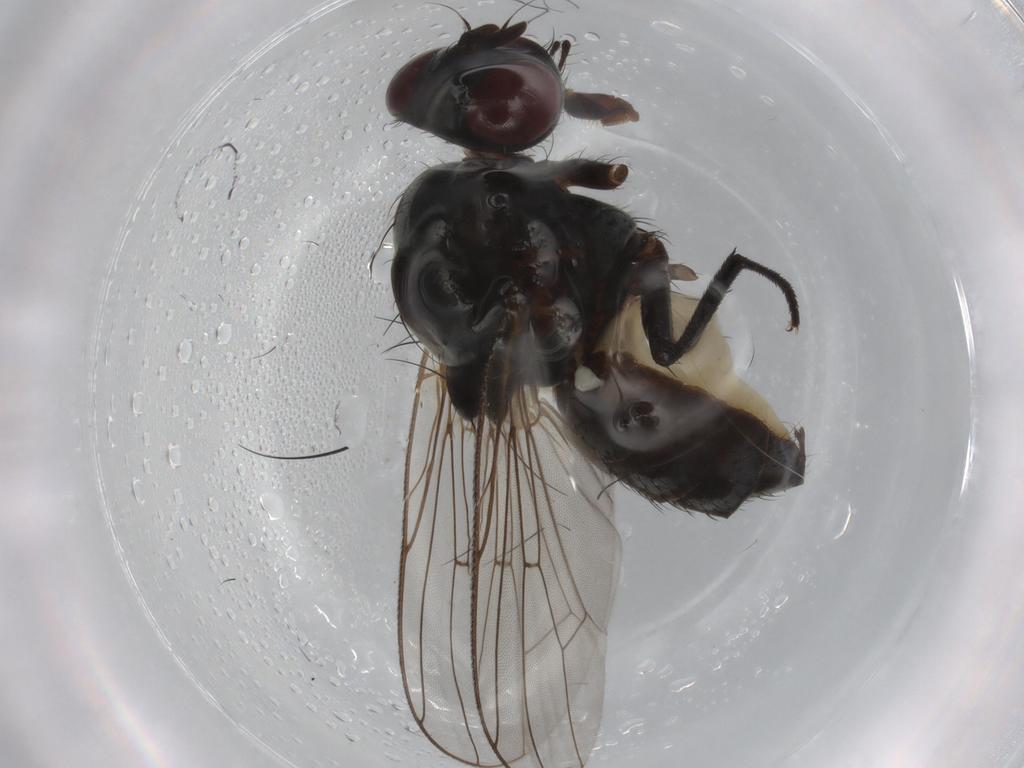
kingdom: Animalia
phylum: Arthropoda
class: Insecta
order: Diptera
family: Anthomyiidae
